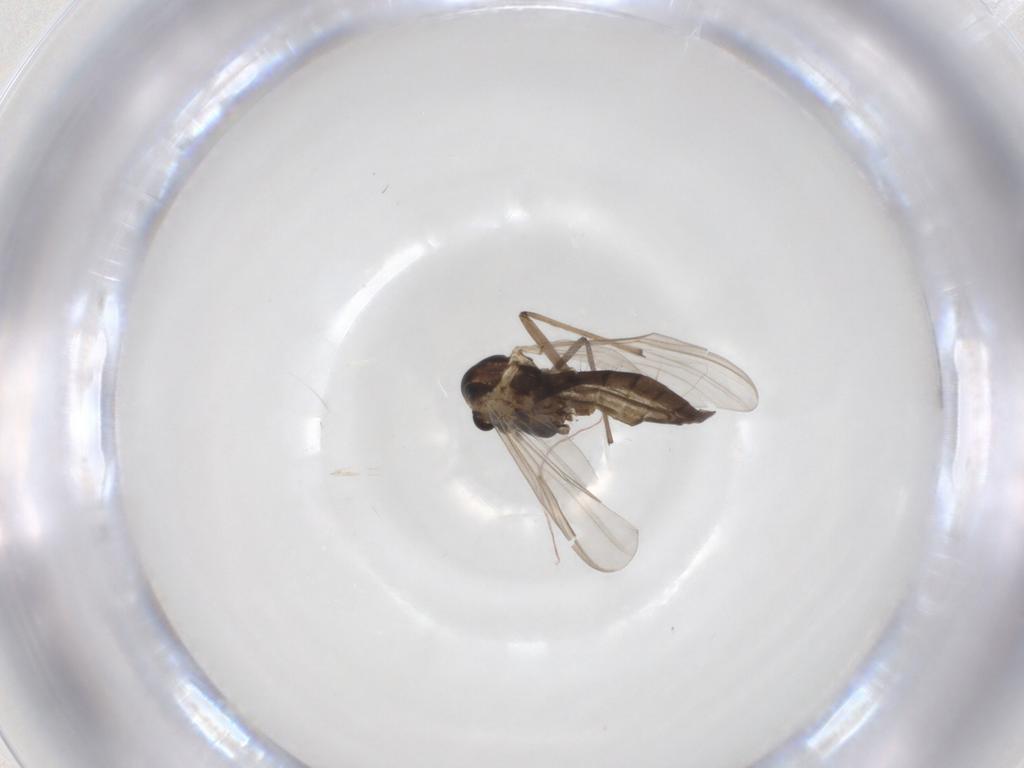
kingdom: Animalia
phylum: Arthropoda
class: Insecta
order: Diptera
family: Chironomidae
